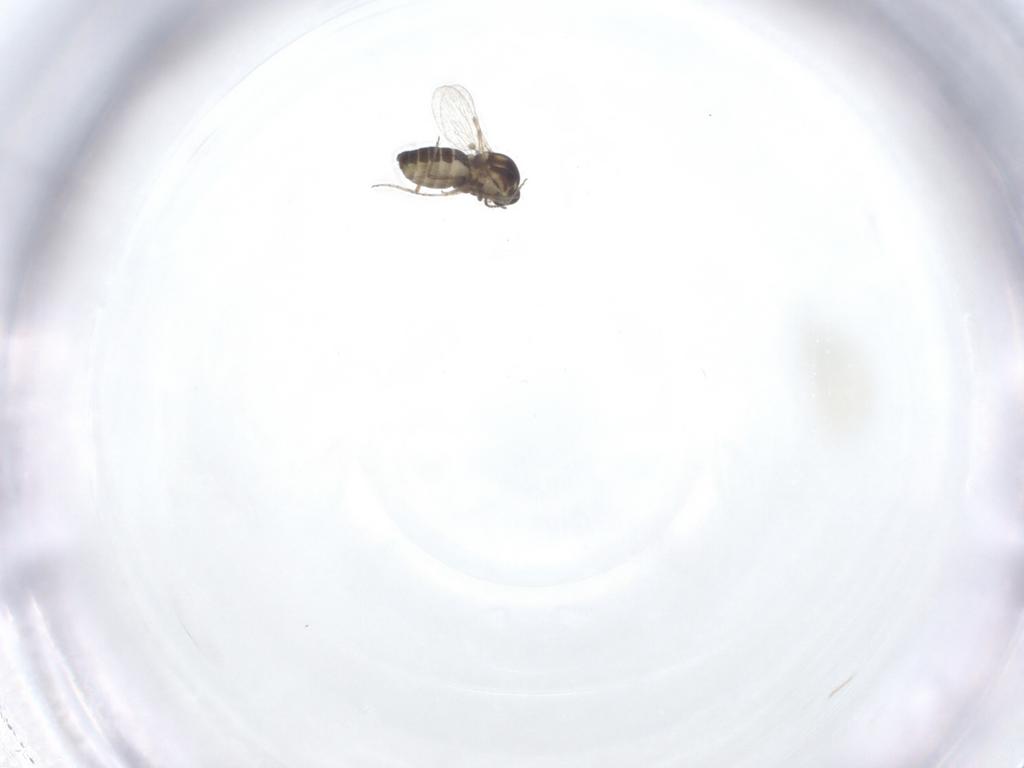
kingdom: Animalia
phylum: Arthropoda
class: Insecta
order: Diptera
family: Ceratopogonidae
